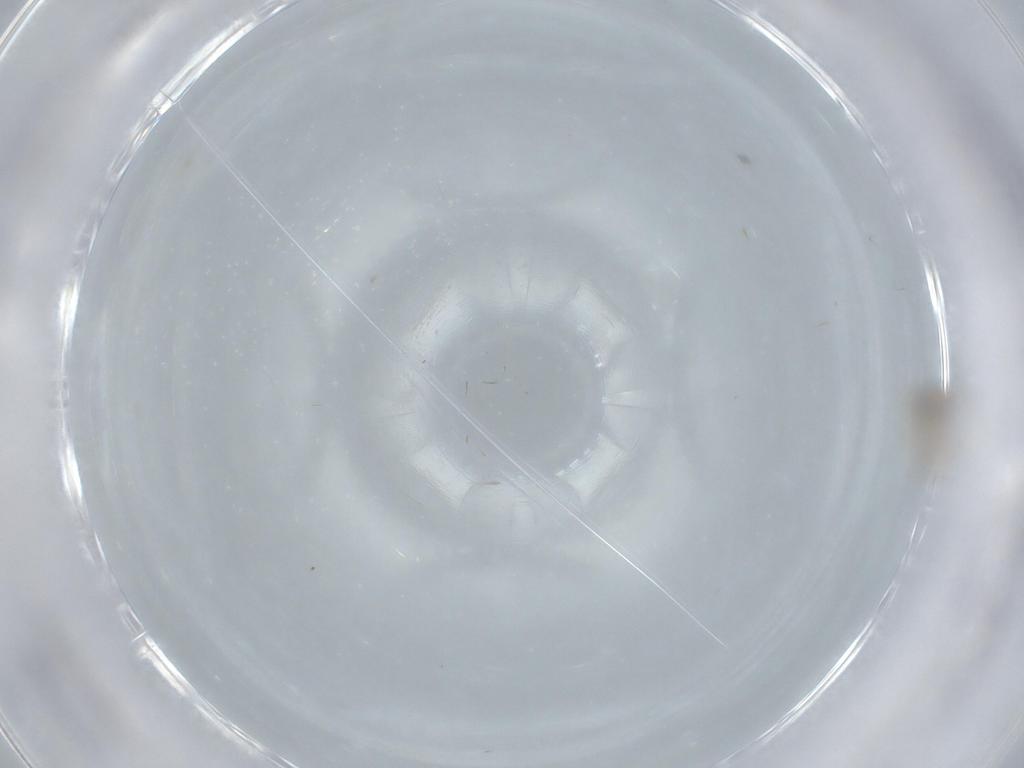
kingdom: Animalia
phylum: Arthropoda
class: Insecta
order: Diptera
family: Cecidomyiidae
